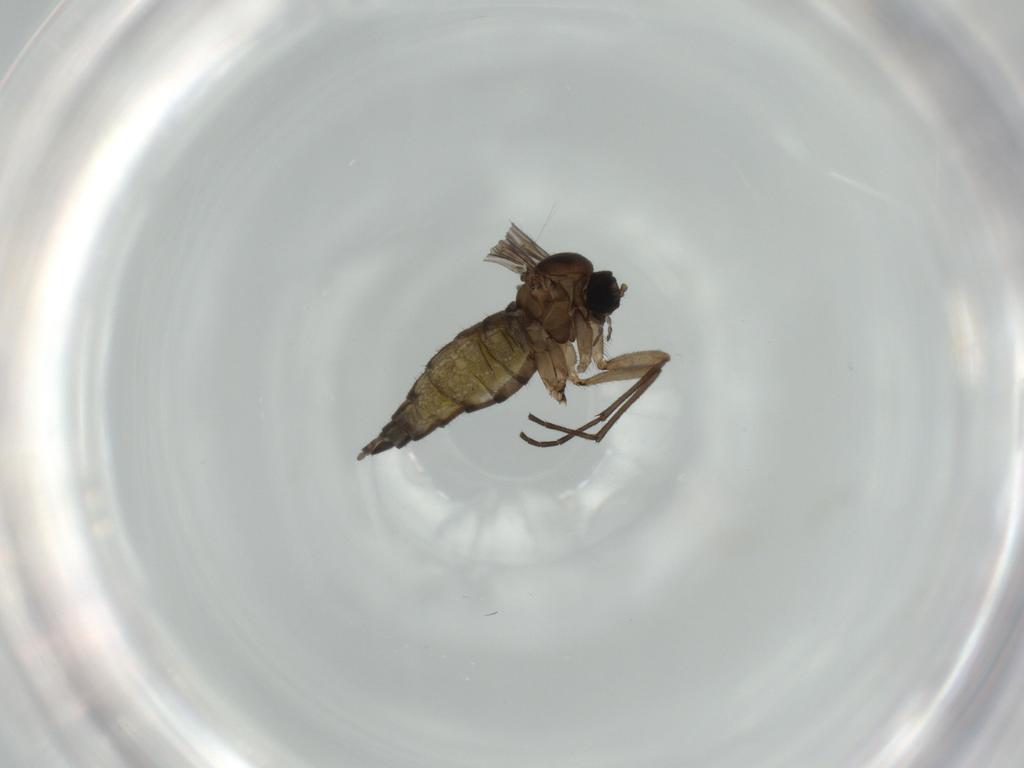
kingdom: Animalia
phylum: Arthropoda
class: Insecta
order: Diptera
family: Sciaridae
